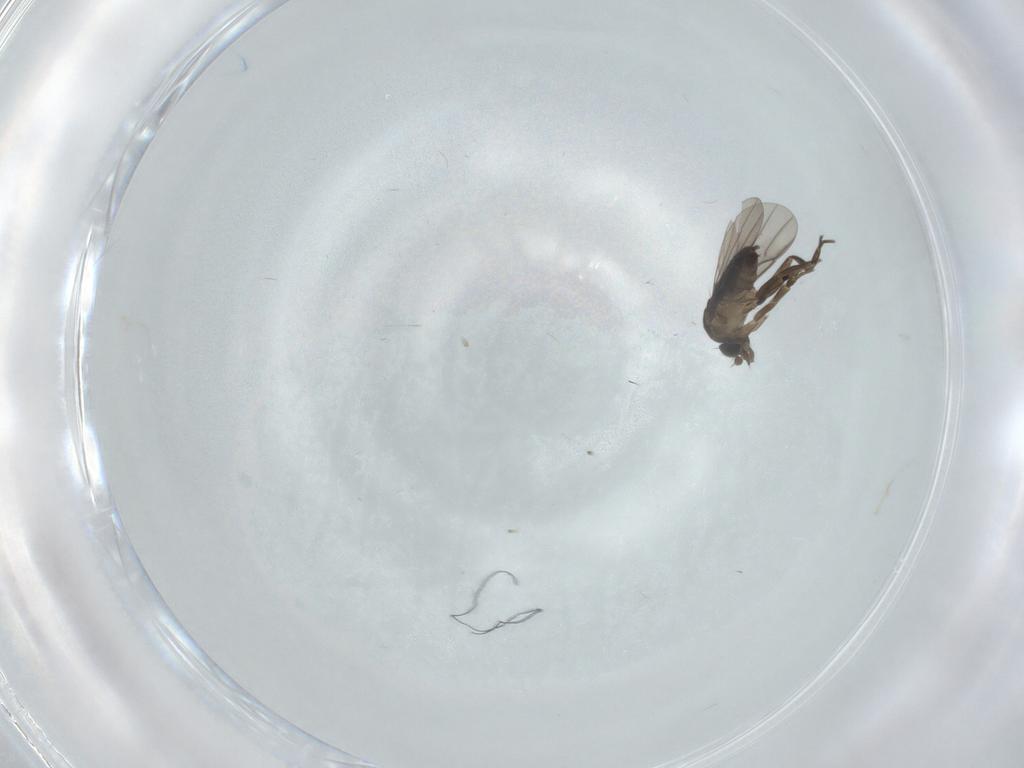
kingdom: Animalia
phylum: Arthropoda
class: Insecta
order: Diptera
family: Phoridae
